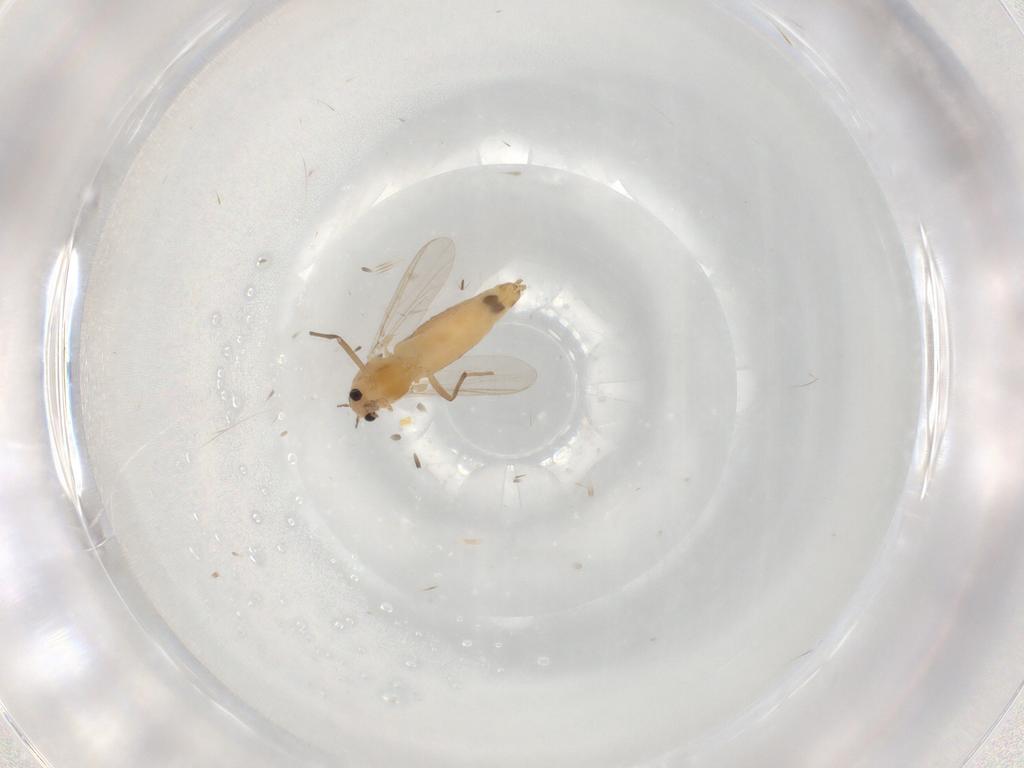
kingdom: Animalia
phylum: Arthropoda
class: Insecta
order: Diptera
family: Chironomidae
